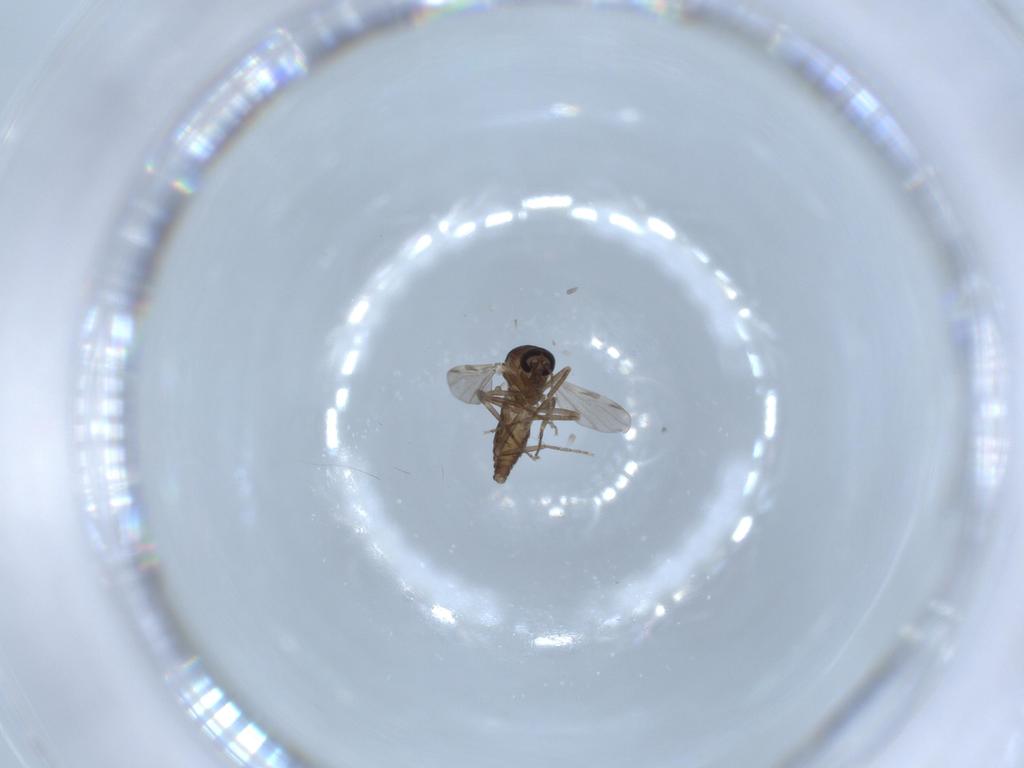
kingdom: Animalia
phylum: Arthropoda
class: Insecta
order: Diptera
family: Ceratopogonidae
